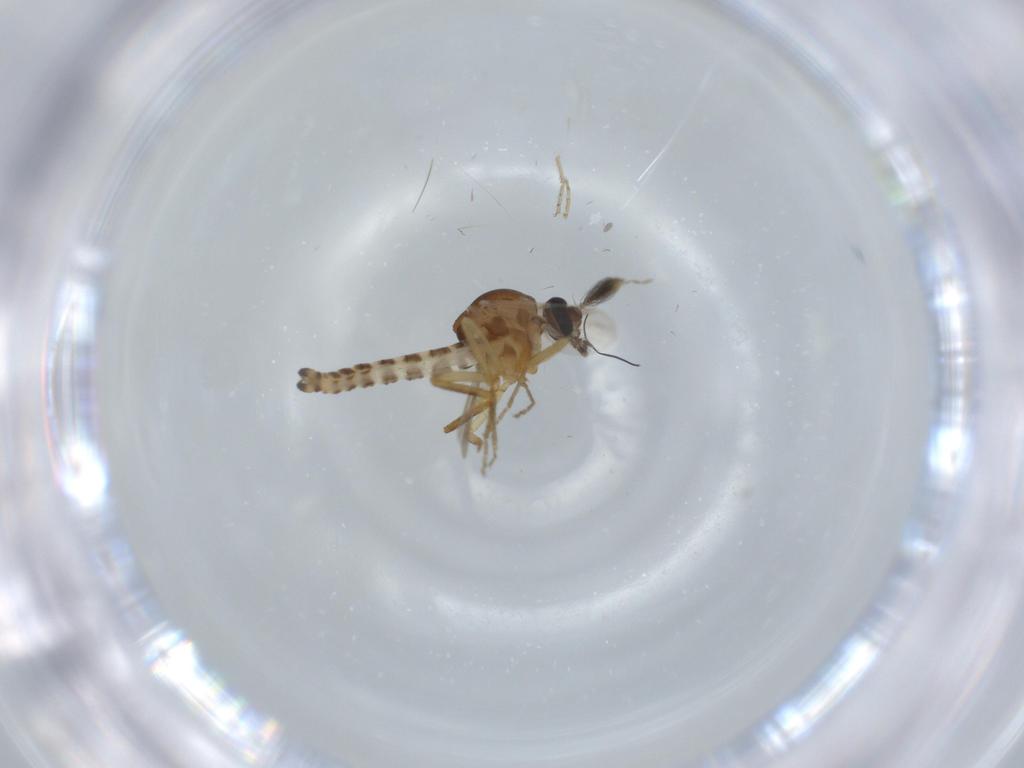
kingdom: Animalia
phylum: Arthropoda
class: Insecta
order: Diptera
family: Ceratopogonidae
